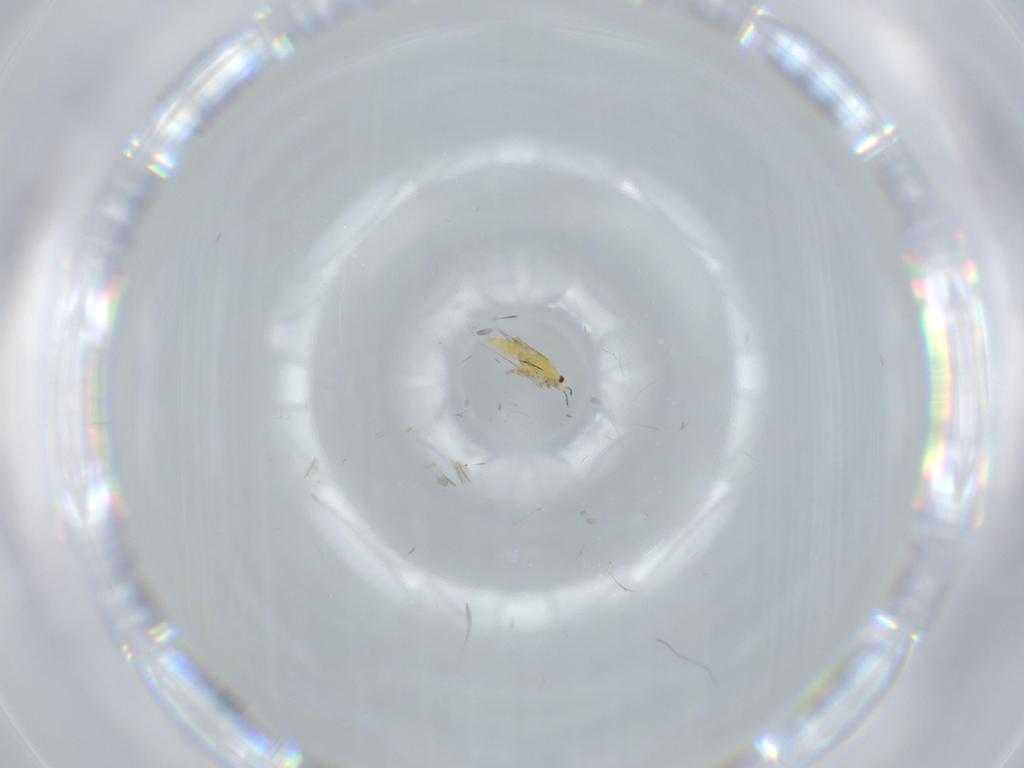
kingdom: Animalia
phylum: Arthropoda
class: Insecta
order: Thysanoptera
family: Thripidae
